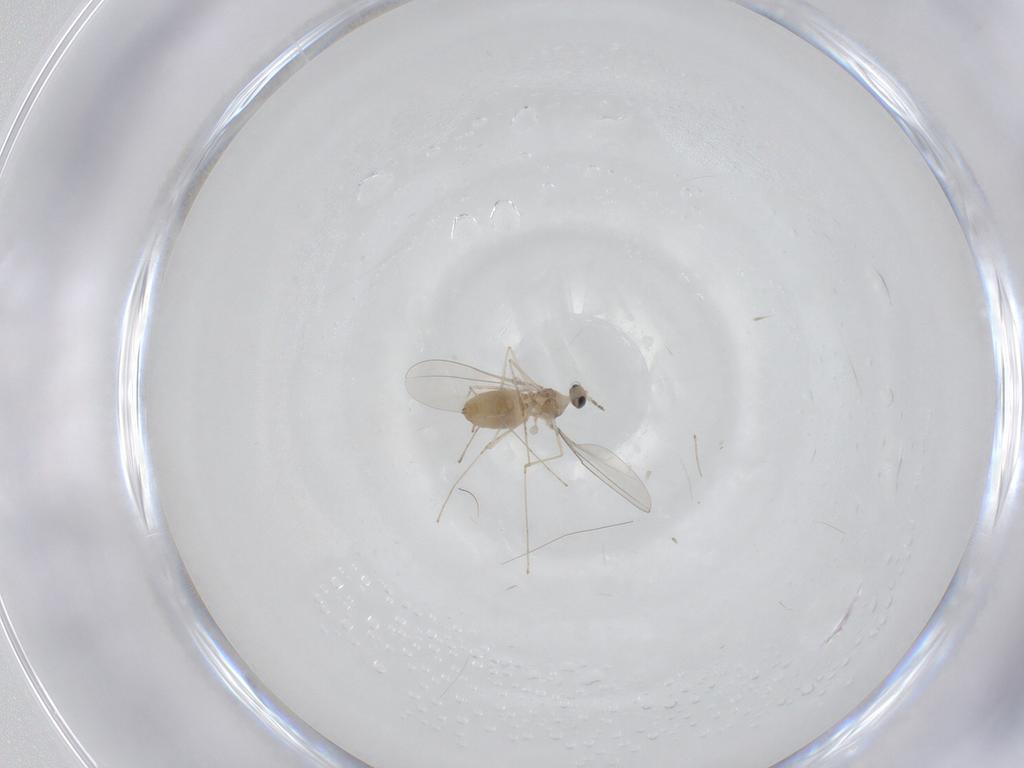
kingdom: Animalia
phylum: Arthropoda
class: Insecta
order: Diptera
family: Cecidomyiidae
